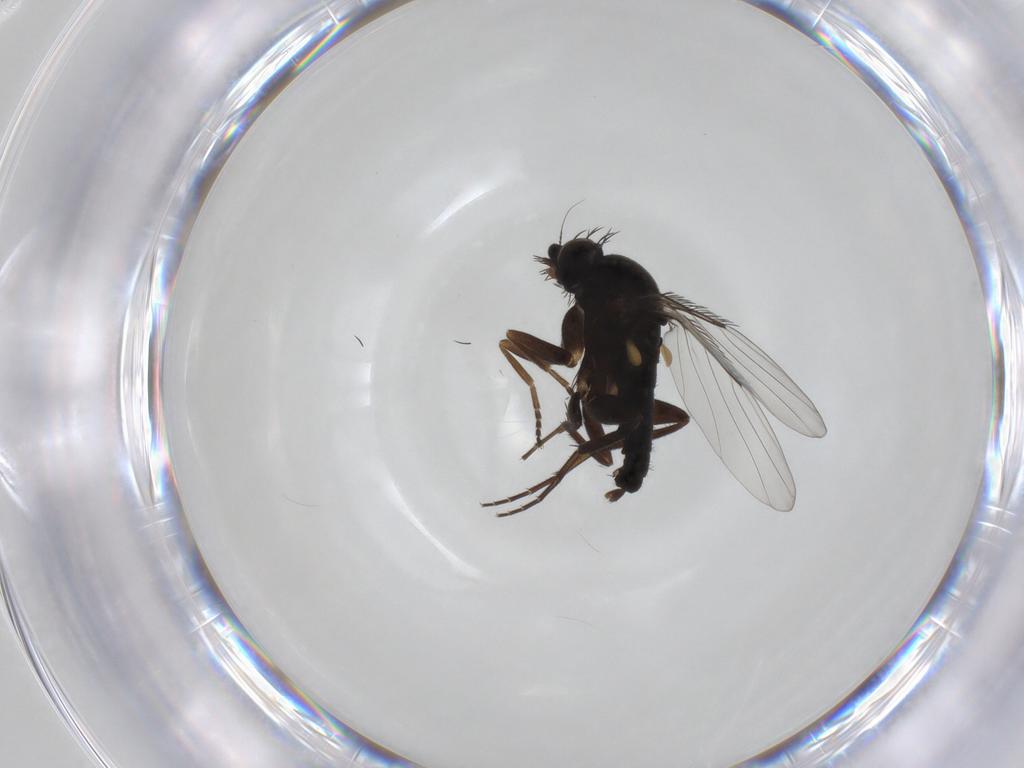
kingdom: Animalia
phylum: Arthropoda
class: Insecta
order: Diptera
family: Phoridae
